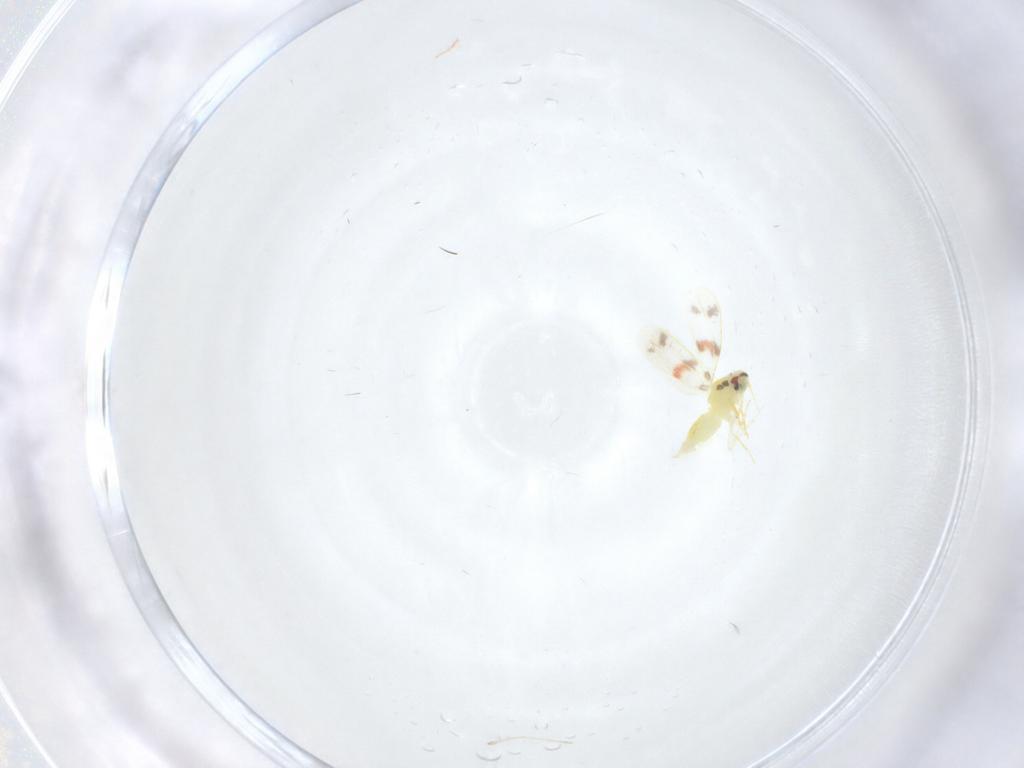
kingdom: Animalia
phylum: Arthropoda
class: Insecta
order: Hemiptera
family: Aleyrodidae
